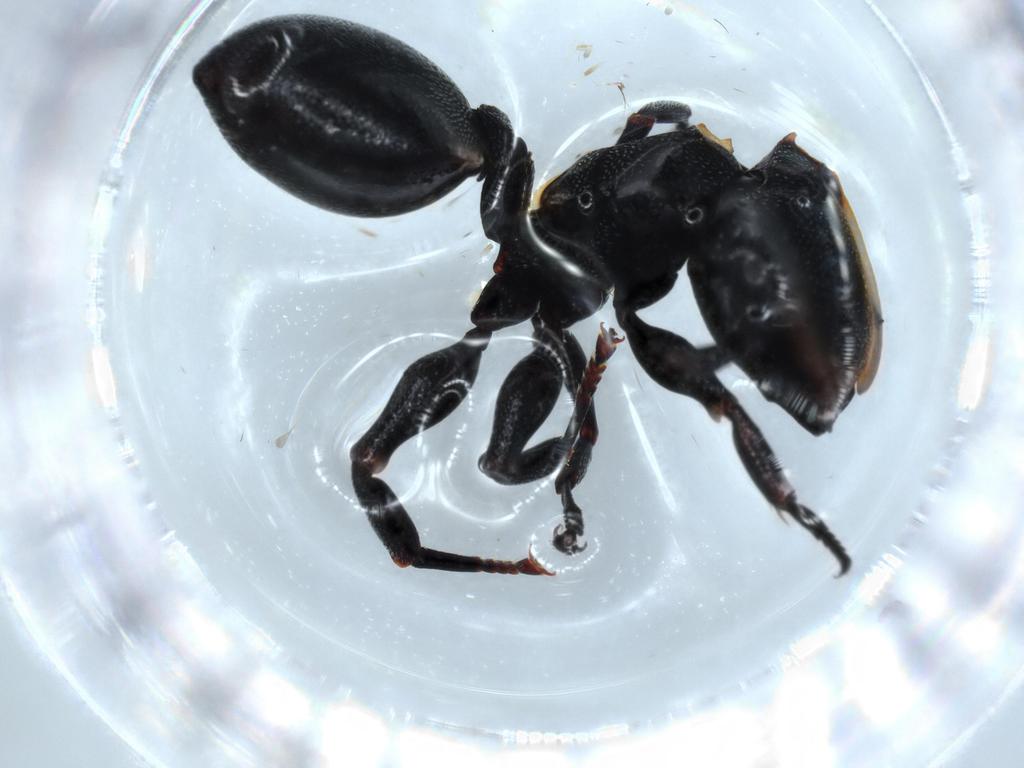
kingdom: Animalia
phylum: Arthropoda
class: Insecta
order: Hymenoptera
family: Formicidae
